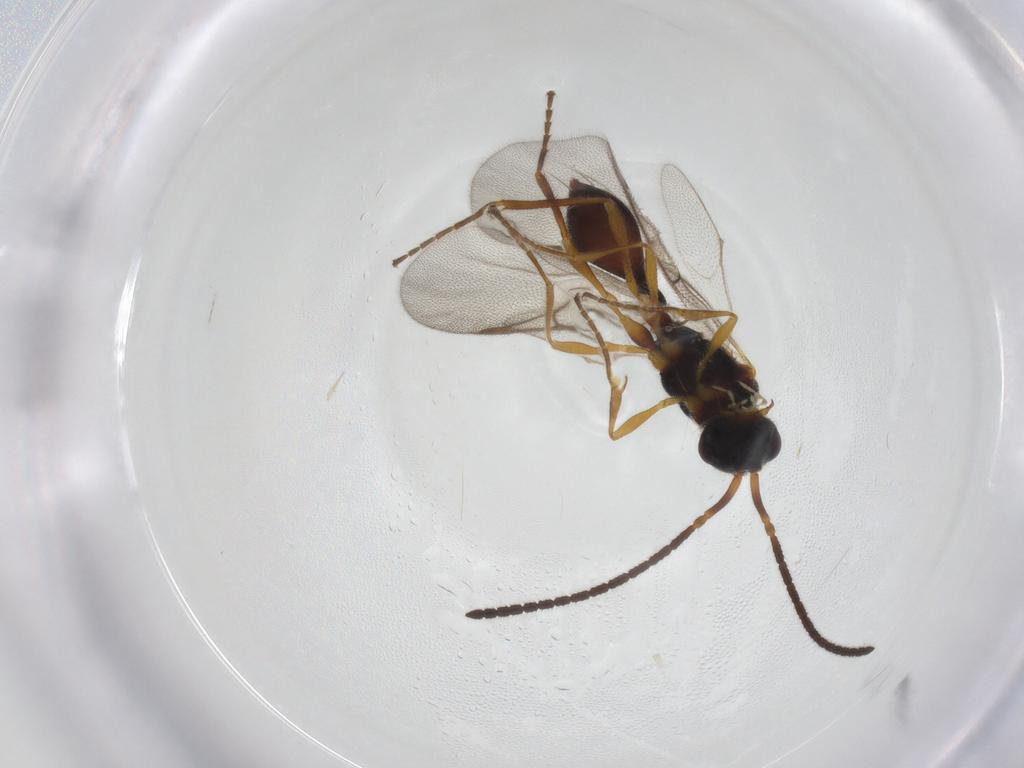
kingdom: Animalia
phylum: Arthropoda
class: Insecta
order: Hymenoptera
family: Diapriidae
